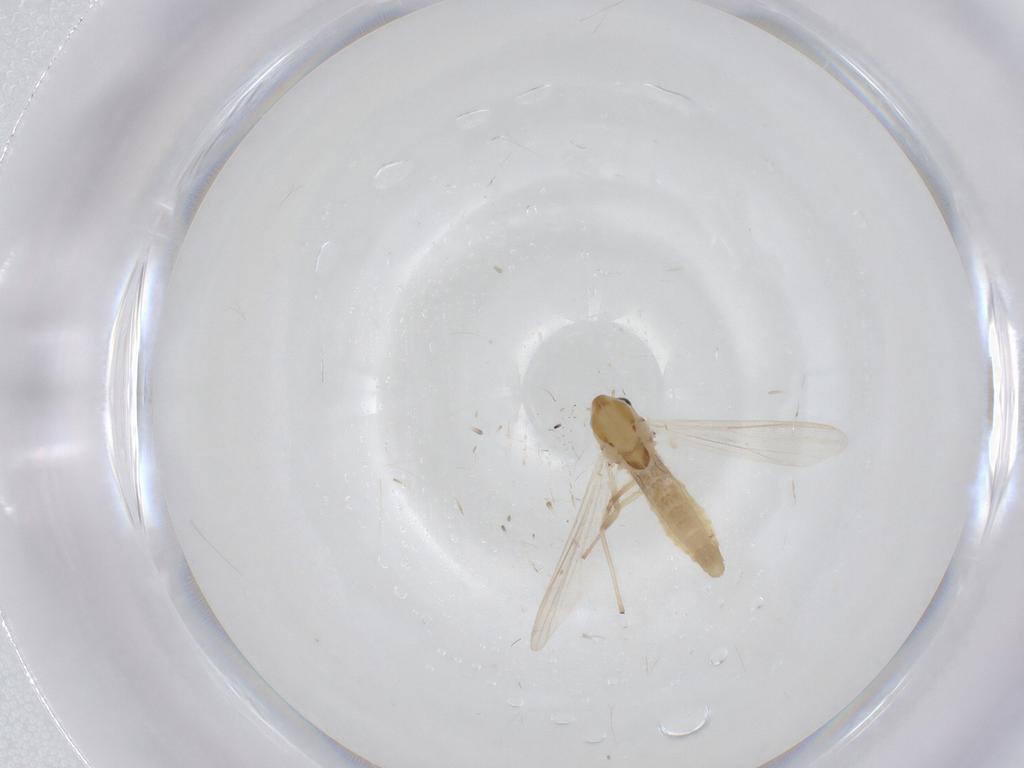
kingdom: Animalia
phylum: Arthropoda
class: Insecta
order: Diptera
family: Chironomidae
